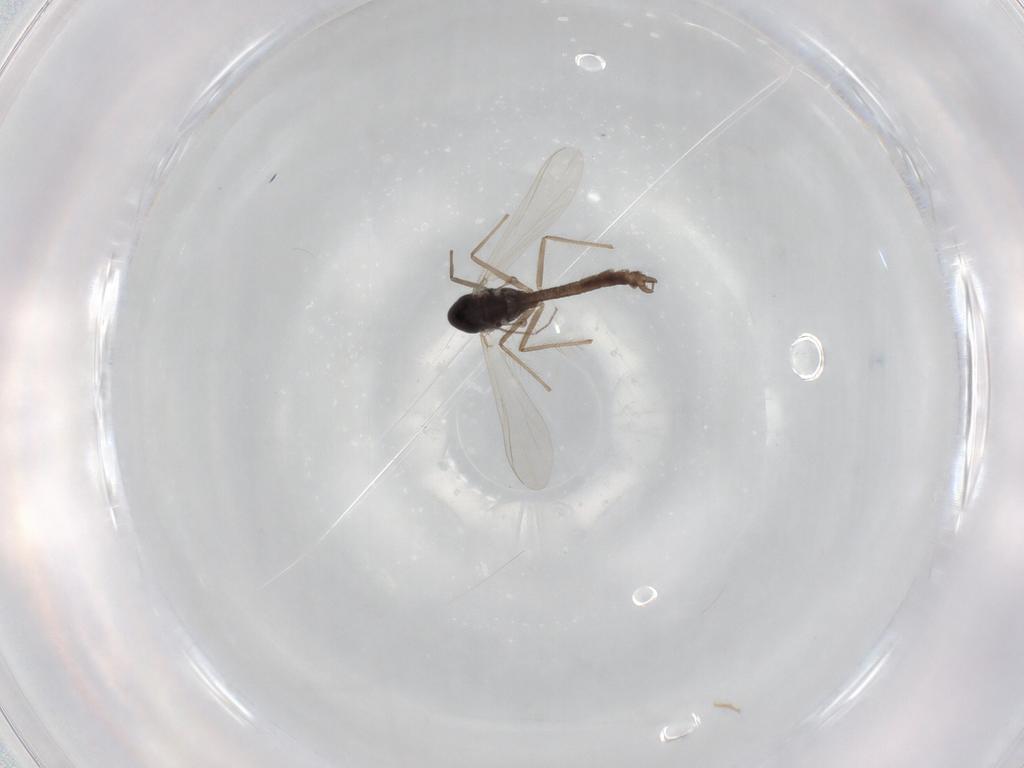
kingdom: Animalia
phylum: Arthropoda
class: Insecta
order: Diptera
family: Chironomidae
